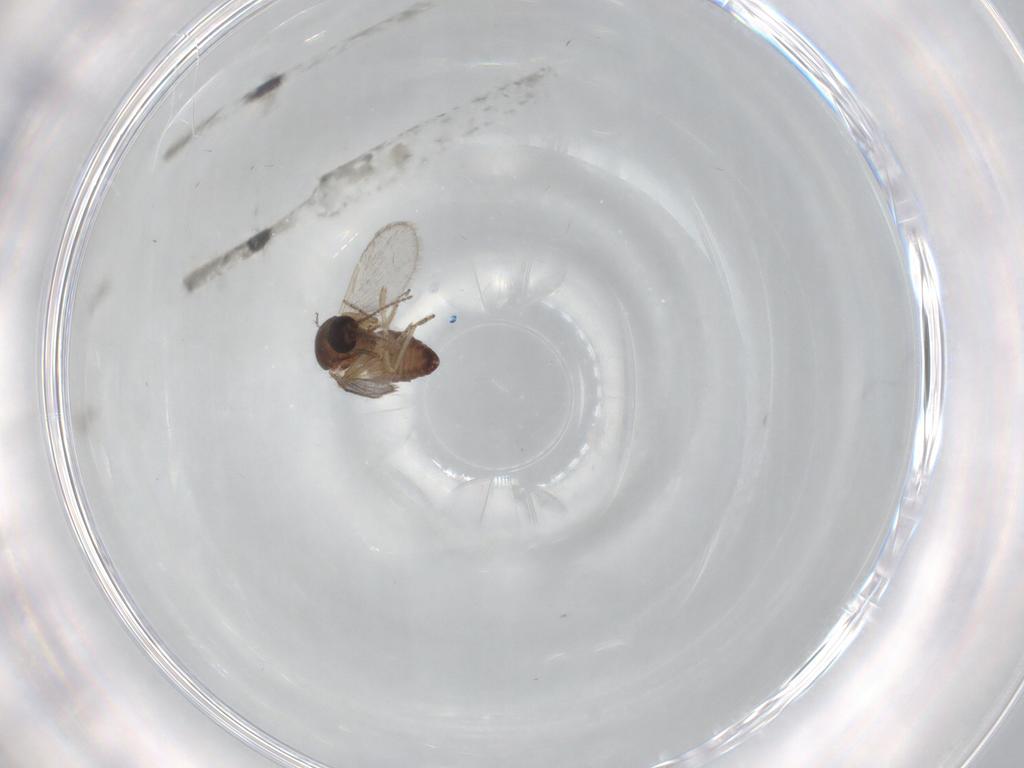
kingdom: Animalia
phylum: Arthropoda
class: Insecta
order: Diptera
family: Ceratopogonidae
